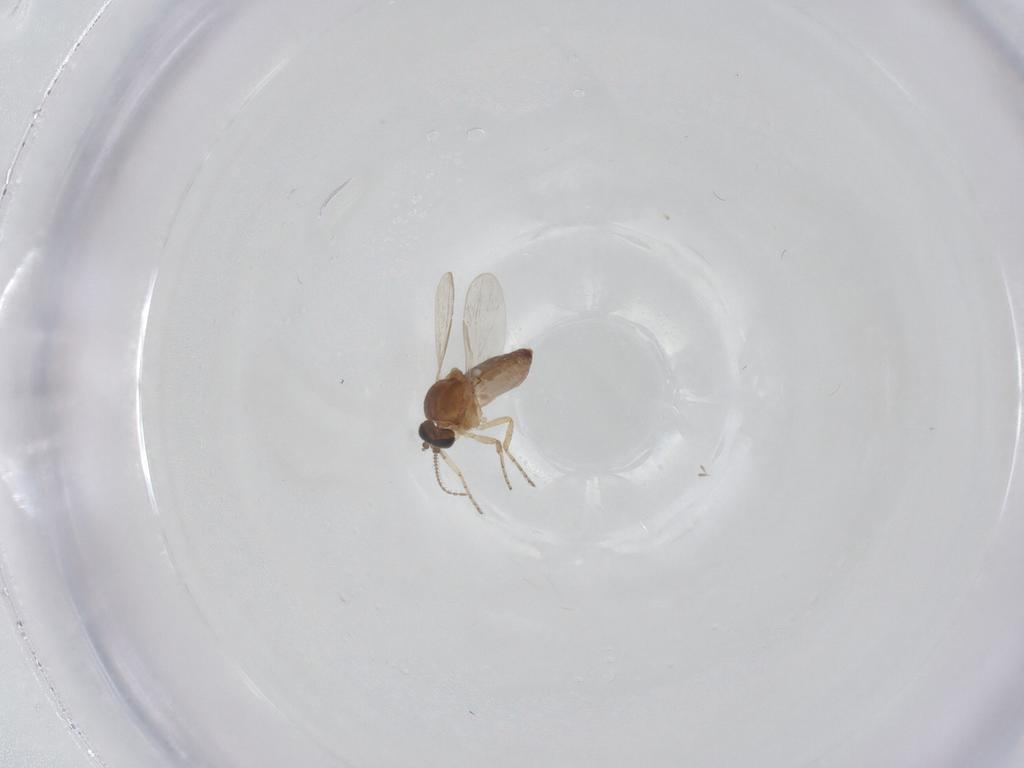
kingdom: Animalia
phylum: Arthropoda
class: Insecta
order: Diptera
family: Ceratopogonidae
